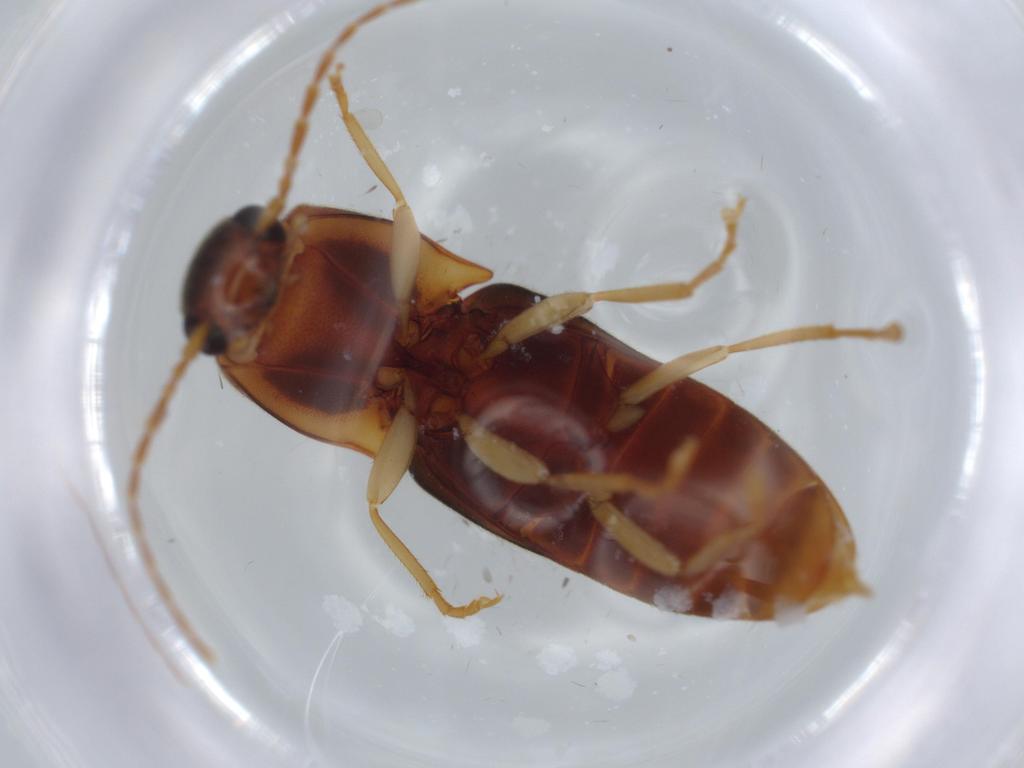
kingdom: Animalia
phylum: Arthropoda
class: Insecta
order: Coleoptera
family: Elateridae
